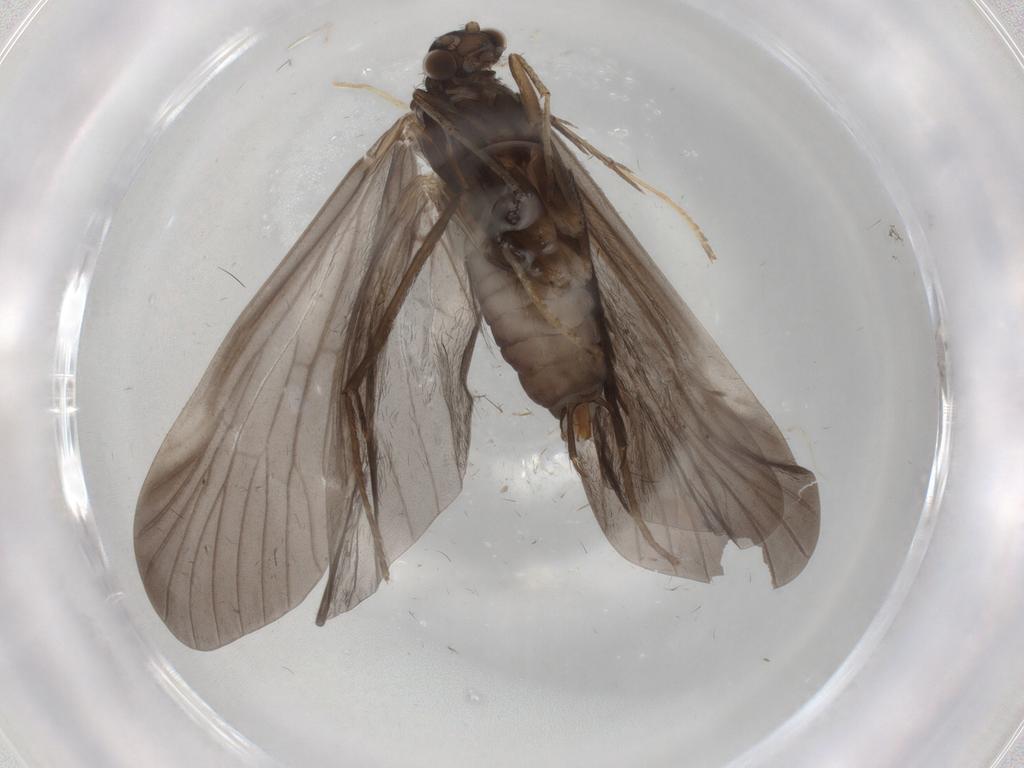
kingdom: Animalia
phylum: Arthropoda
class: Insecta
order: Trichoptera
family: Hydropsychidae
